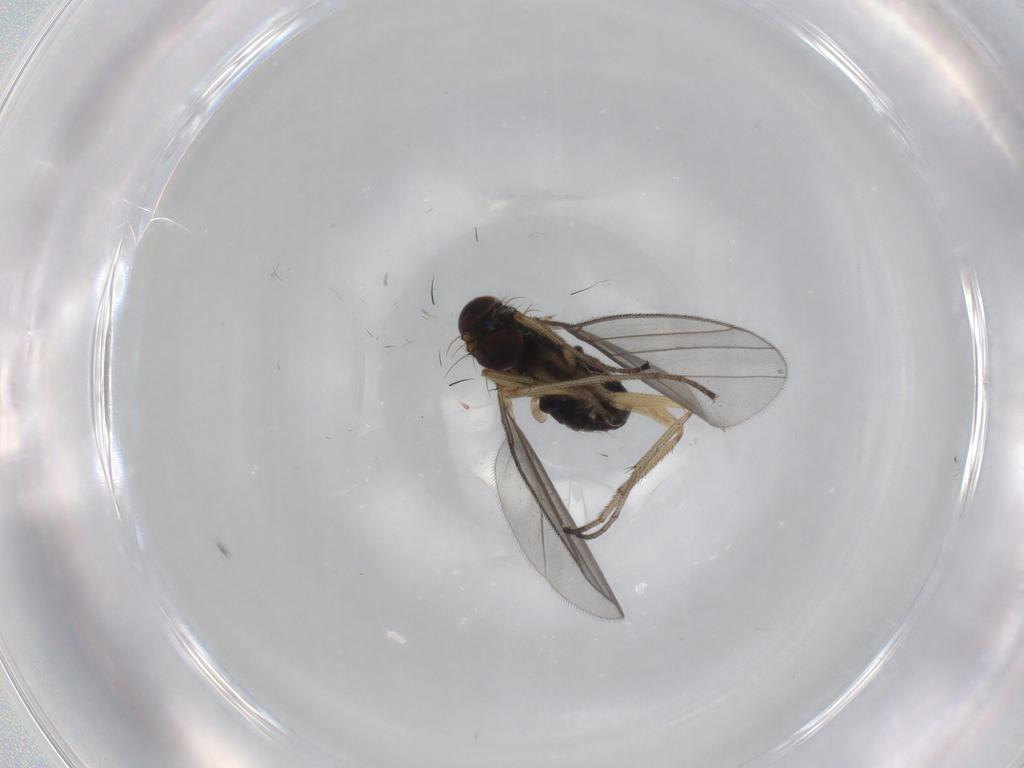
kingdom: Animalia
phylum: Arthropoda
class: Insecta
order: Diptera
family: Dolichopodidae
